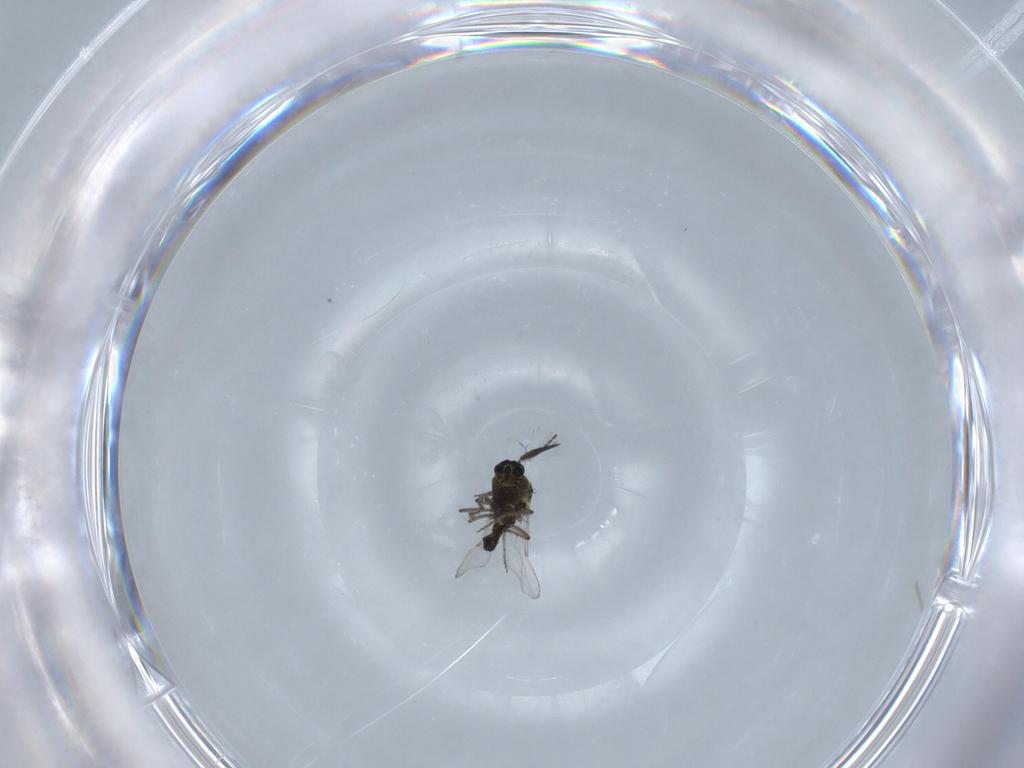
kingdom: Animalia
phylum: Arthropoda
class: Insecta
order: Diptera
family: Ceratopogonidae
